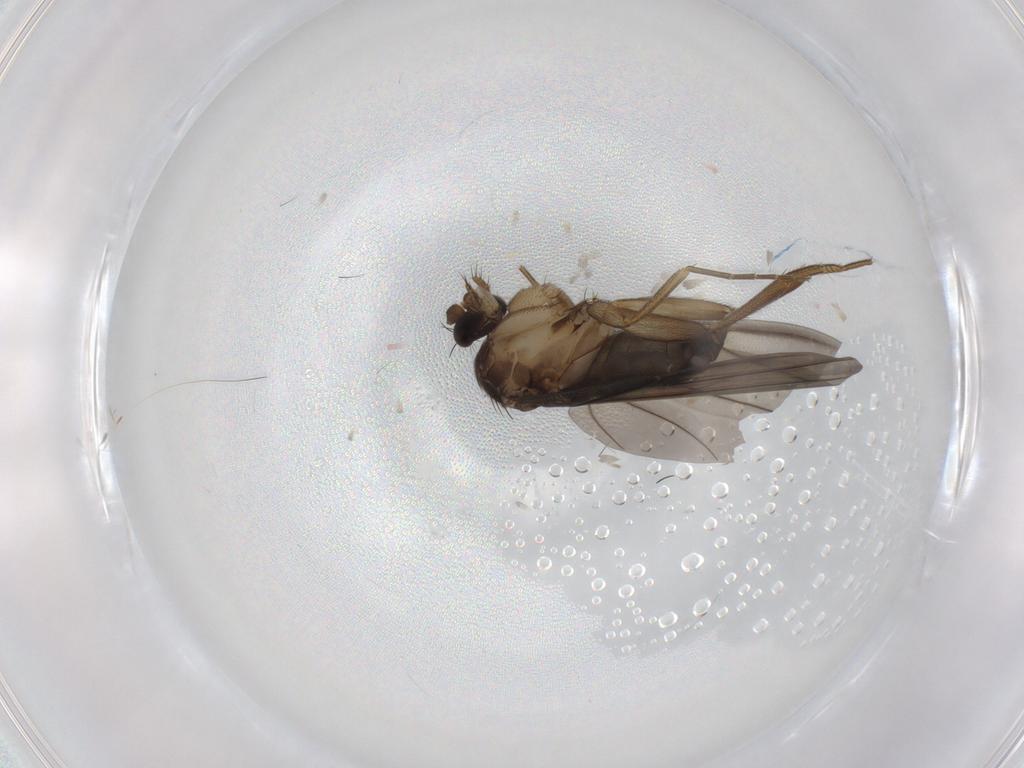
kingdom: Animalia
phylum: Arthropoda
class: Insecta
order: Diptera
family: Phoridae
